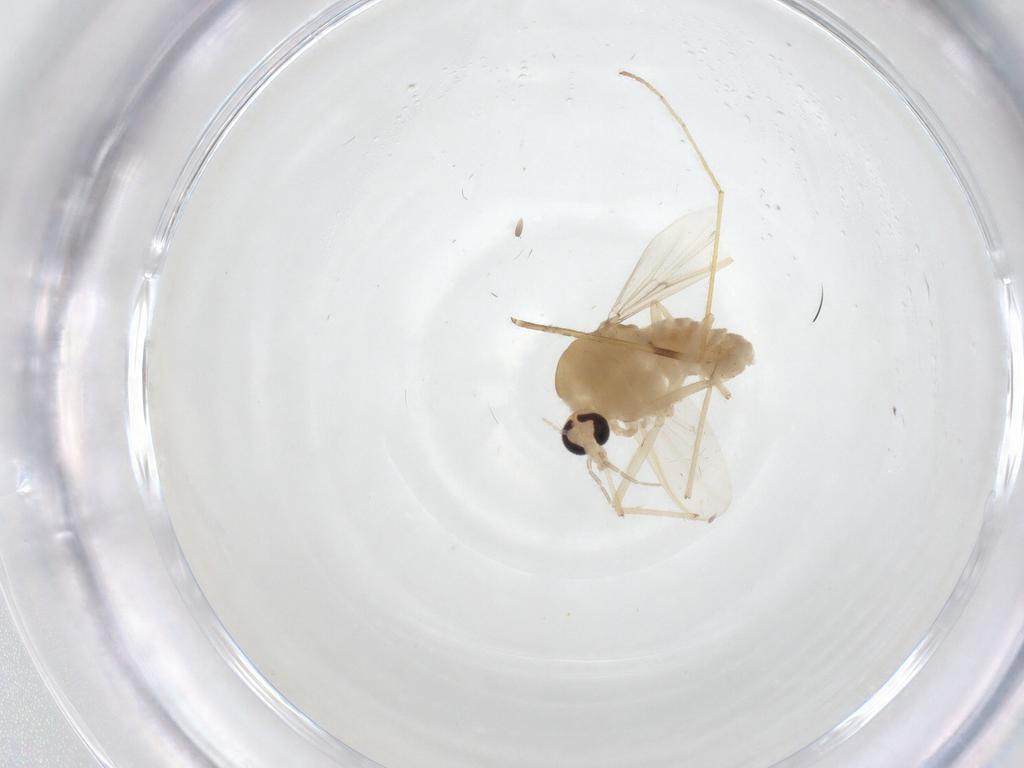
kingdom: Animalia
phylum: Arthropoda
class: Insecta
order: Diptera
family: Chironomidae
